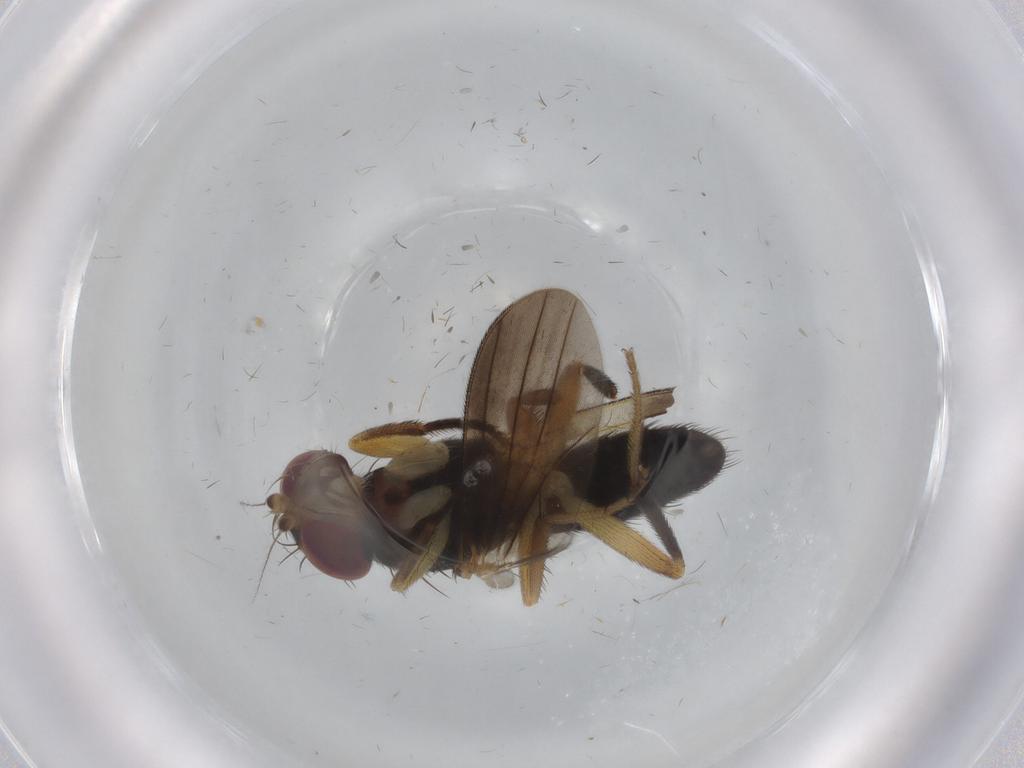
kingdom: Animalia
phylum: Arthropoda
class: Insecta
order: Diptera
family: Clusiidae
